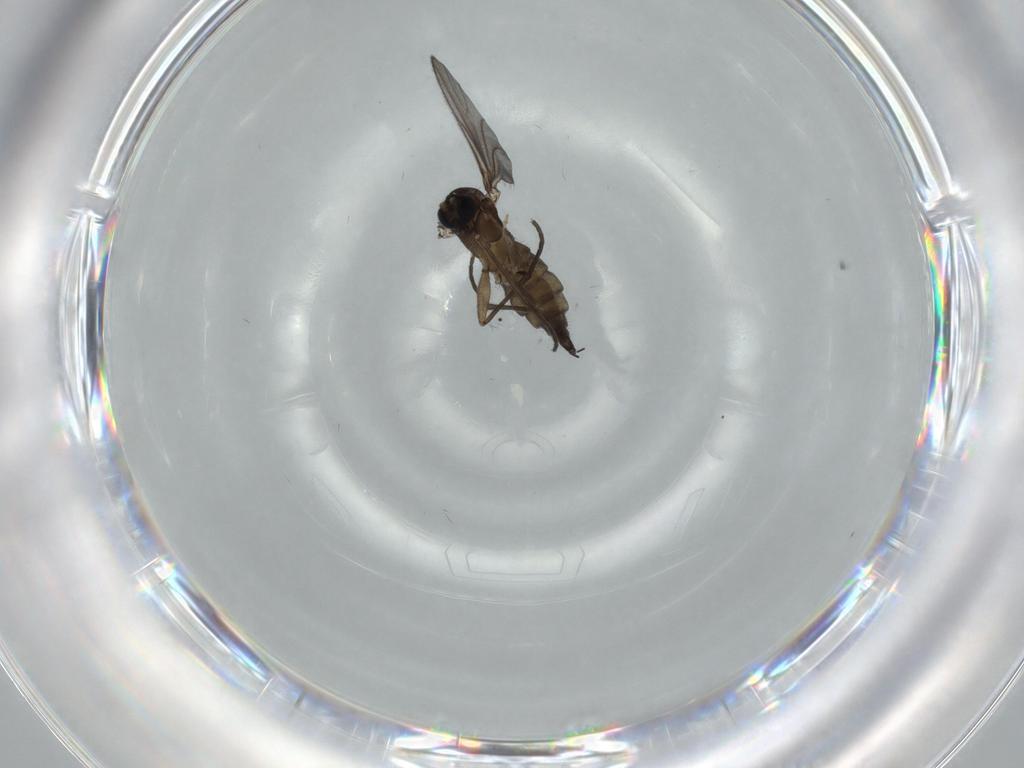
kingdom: Animalia
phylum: Arthropoda
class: Insecta
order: Diptera
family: Sciaridae
